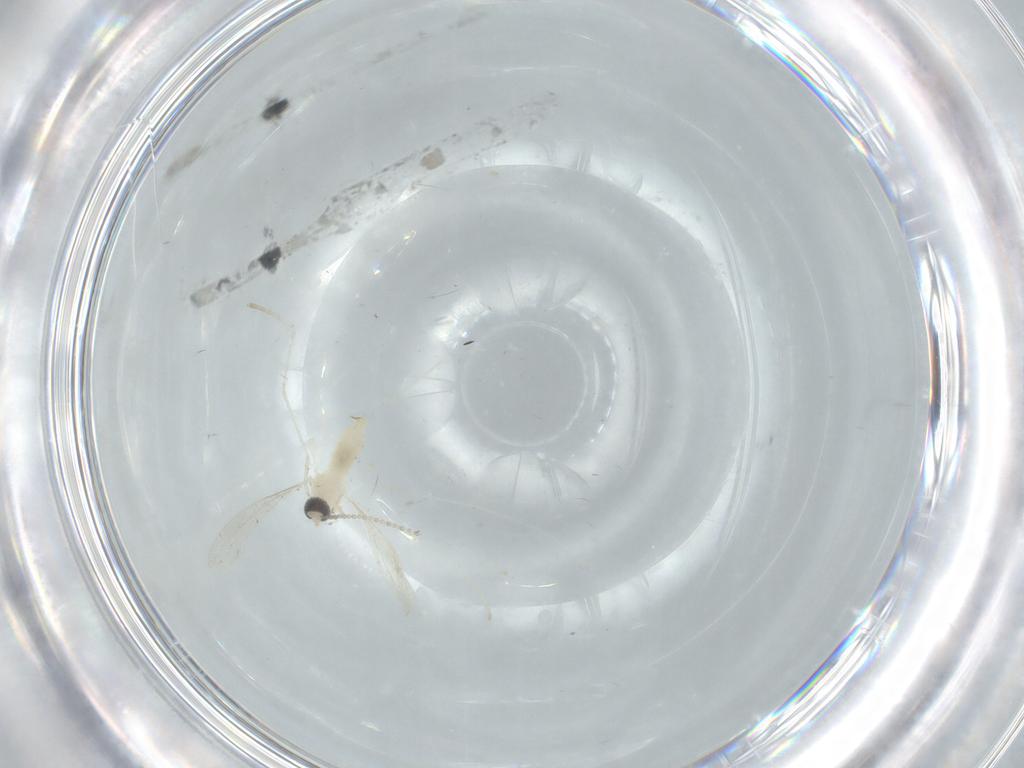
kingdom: Animalia
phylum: Arthropoda
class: Insecta
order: Diptera
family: Cecidomyiidae
